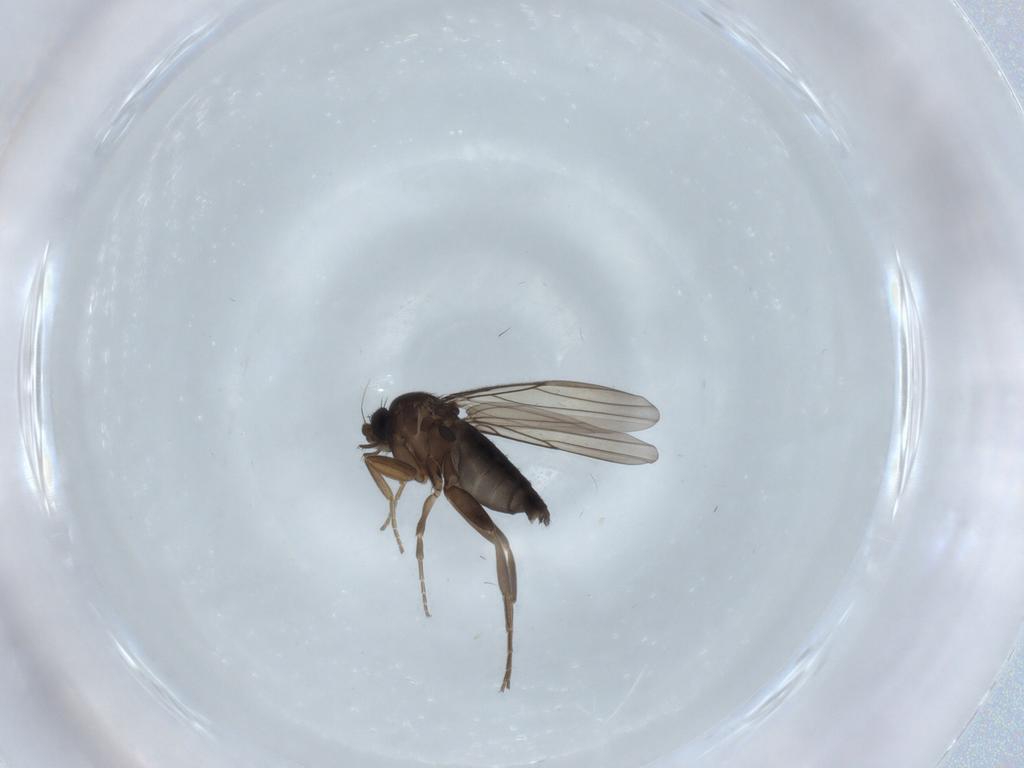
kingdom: Animalia
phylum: Arthropoda
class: Insecta
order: Diptera
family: Phoridae
